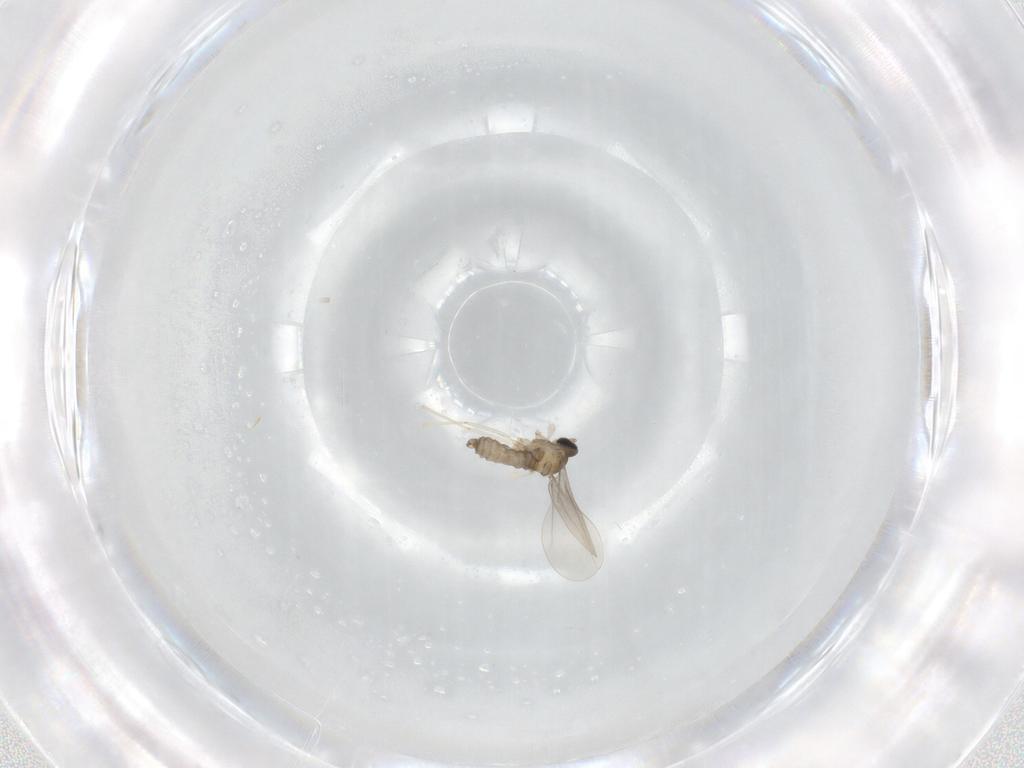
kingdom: Animalia
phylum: Arthropoda
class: Insecta
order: Diptera
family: Cecidomyiidae
